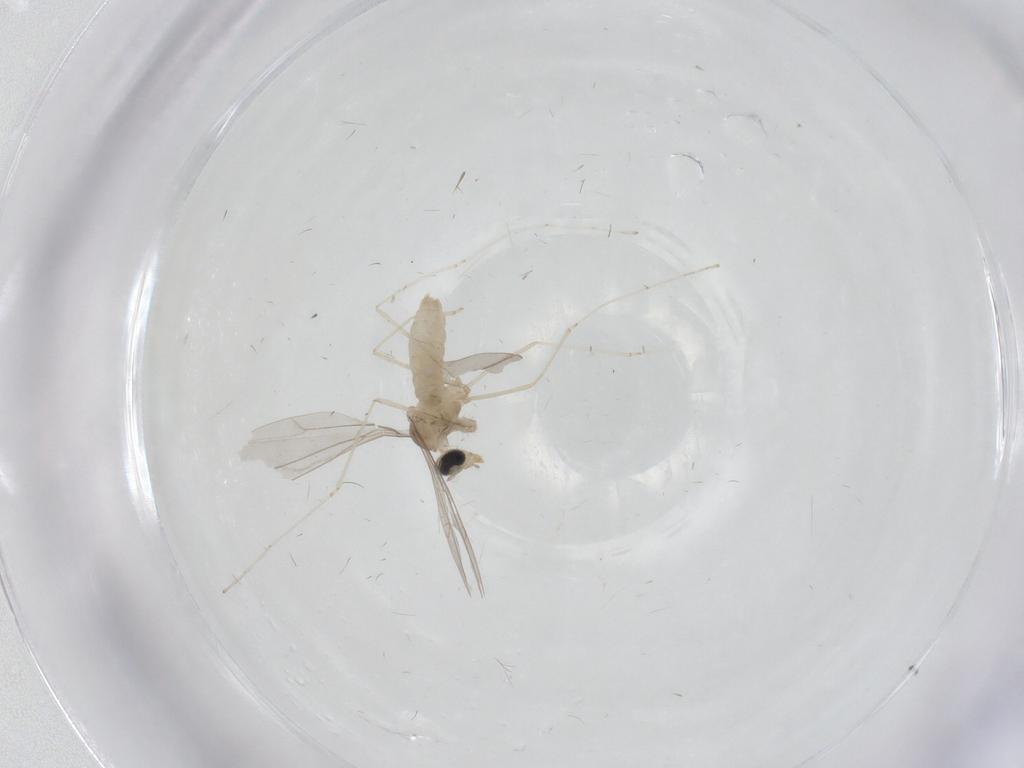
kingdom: Animalia
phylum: Arthropoda
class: Insecta
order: Diptera
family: Cecidomyiidae
